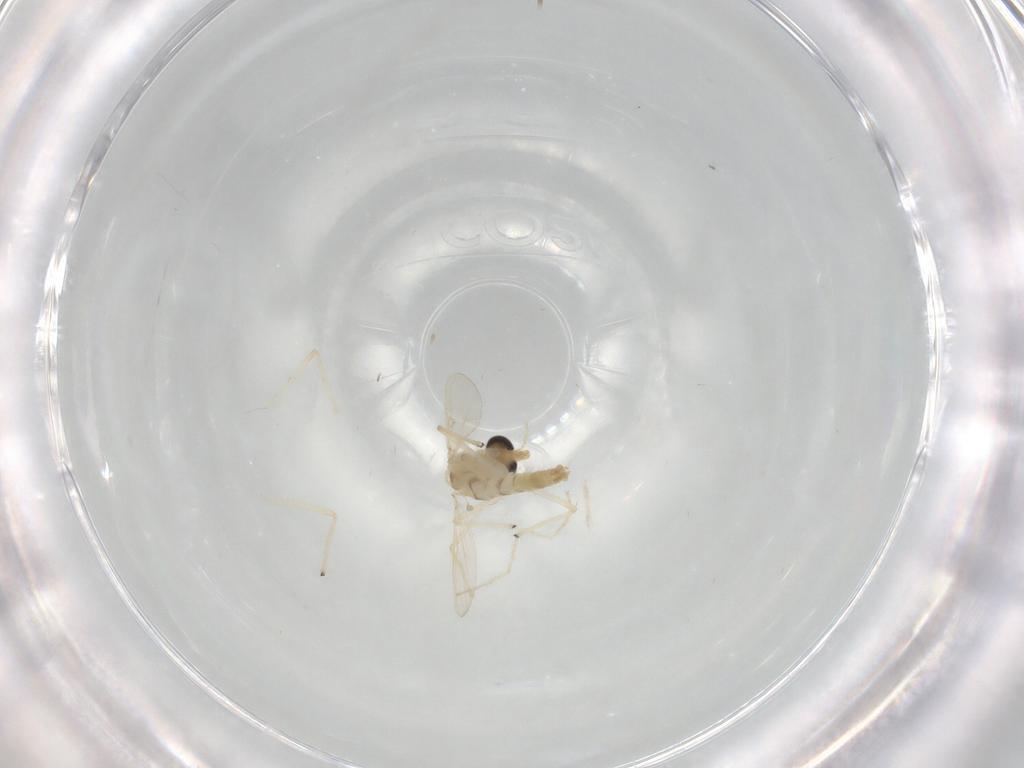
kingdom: Animalia
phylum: Arthropoda
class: Insecta
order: Diptera
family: Chironomidae
